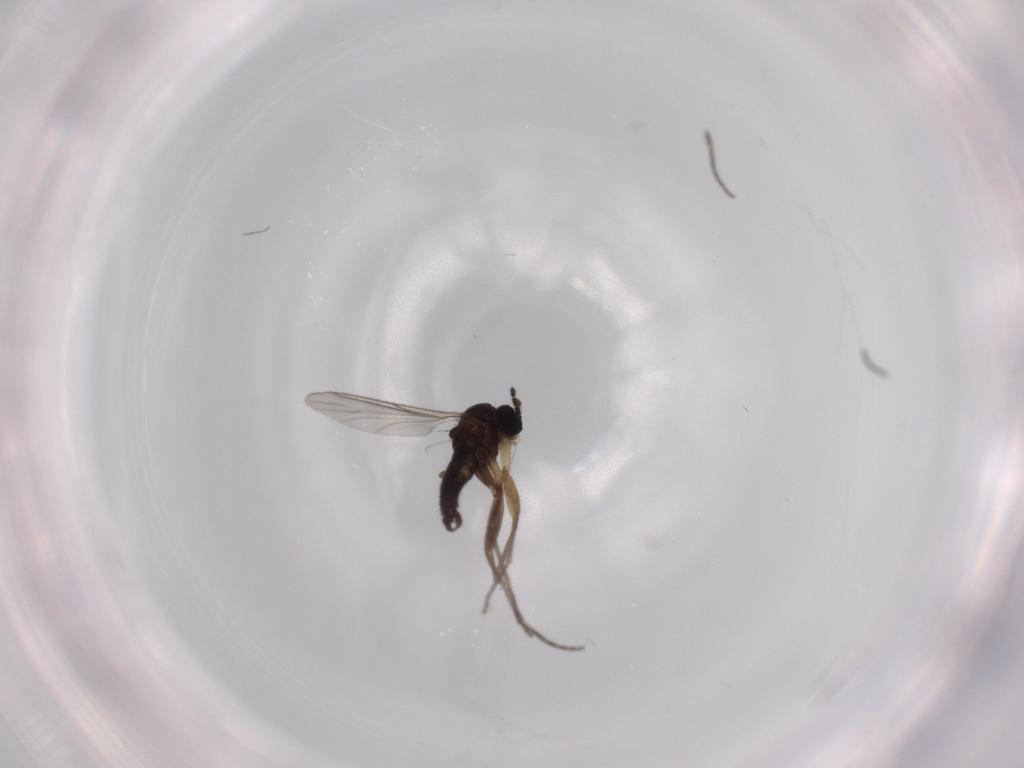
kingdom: Animalia
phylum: Arthropoda
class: Insecta
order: Diptera
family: Sciaridae
